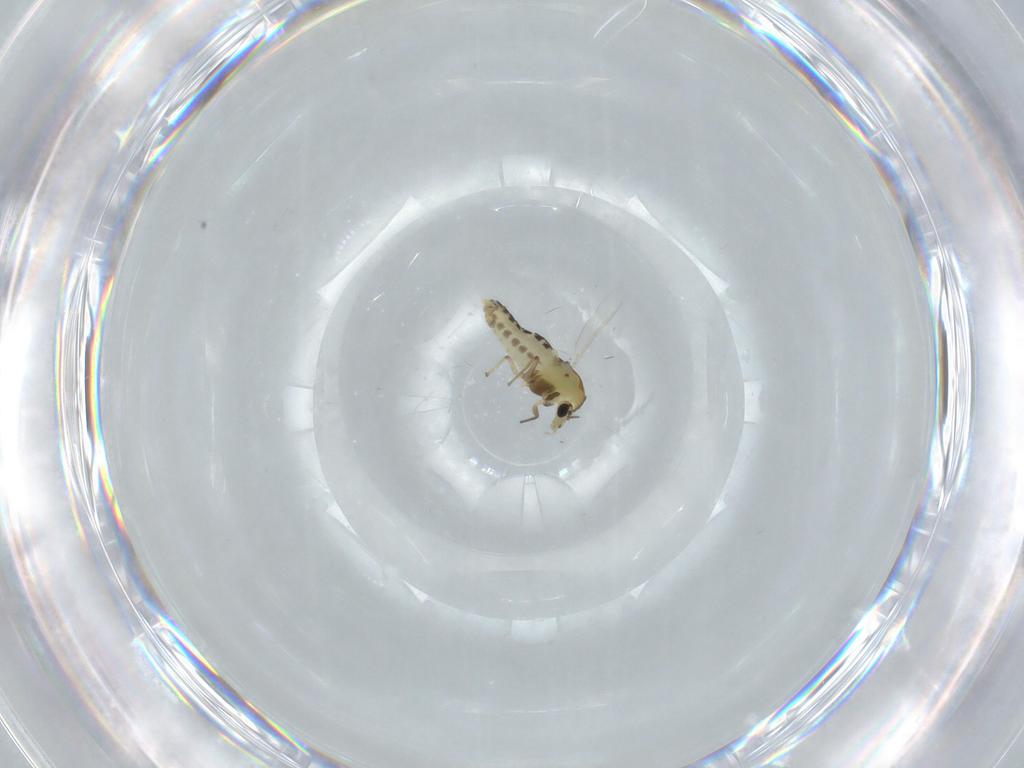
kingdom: Animalia
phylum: Arthropoda
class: Insecta
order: Diptera
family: Chironomidae
